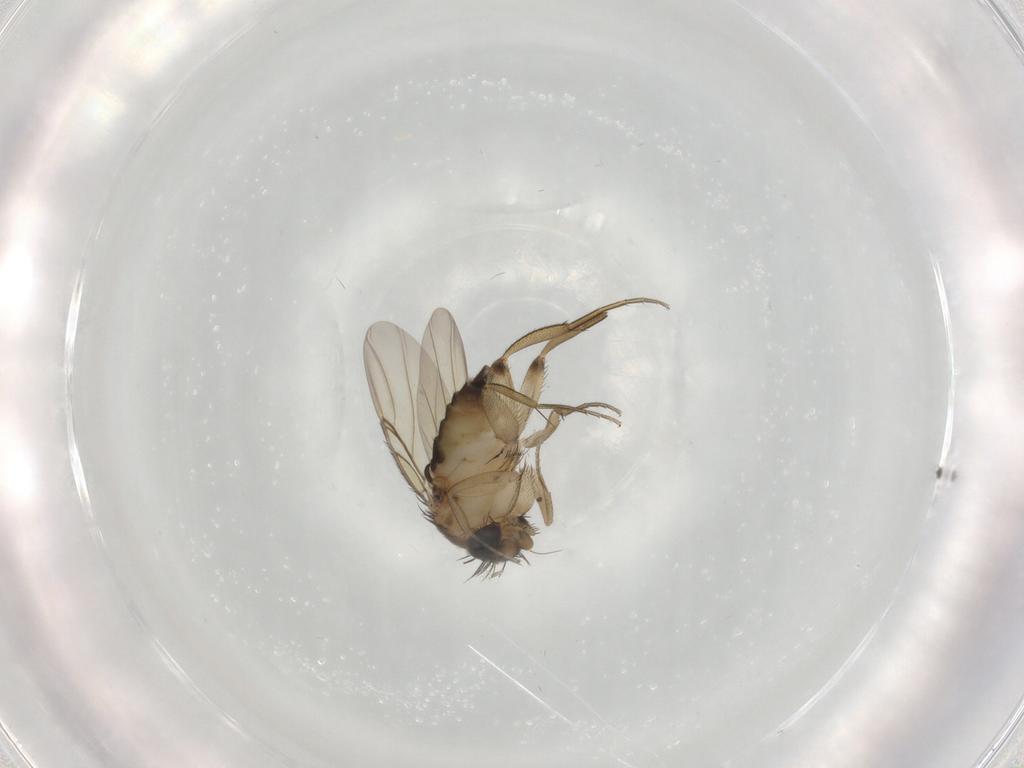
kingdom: Animalia
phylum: Arthropoda
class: Insecta
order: Diptera
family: Phoridae
